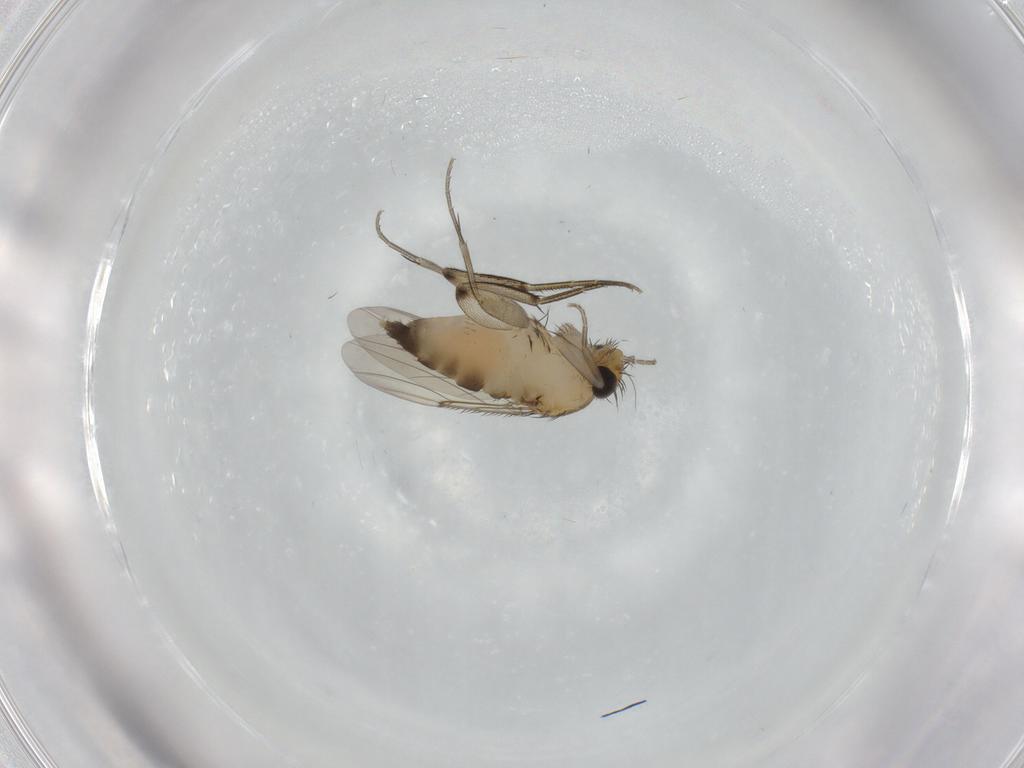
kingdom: Animalia
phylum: Arthropoda
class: Insecta
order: Diptera
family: Phoridae
